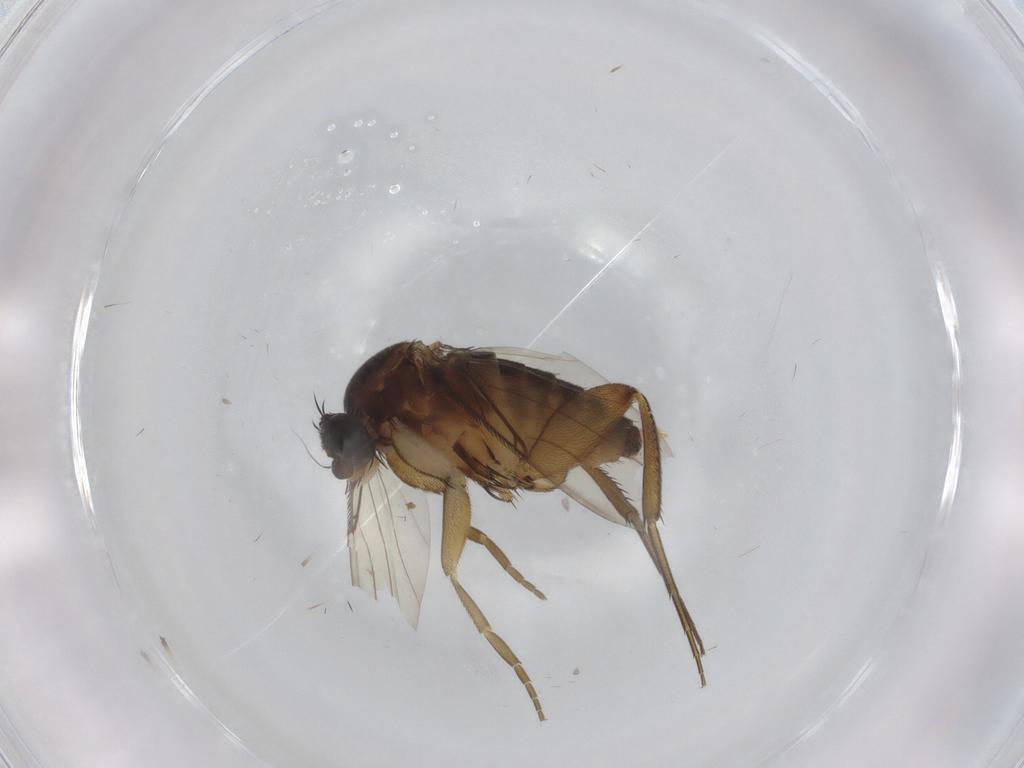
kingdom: Animalia
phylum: Arthropoda
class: Insecta
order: Diptera
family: Phoridae
